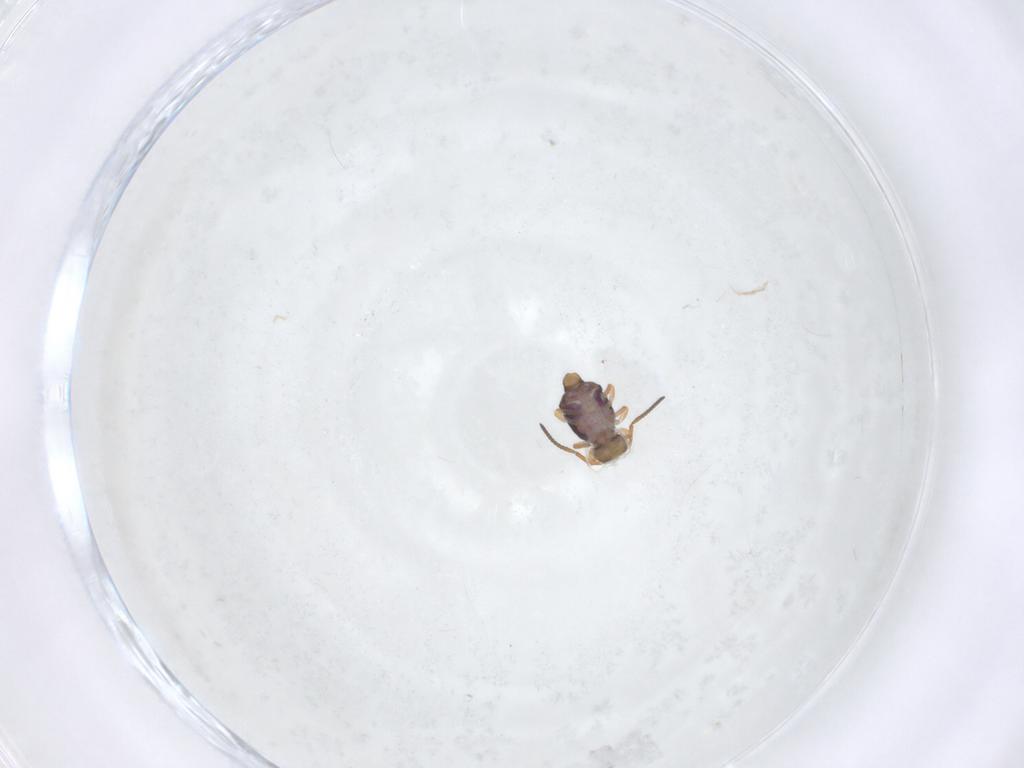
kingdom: Animalia
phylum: Arthropoda
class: Collembola
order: Symphypleona
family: Katiannidae
